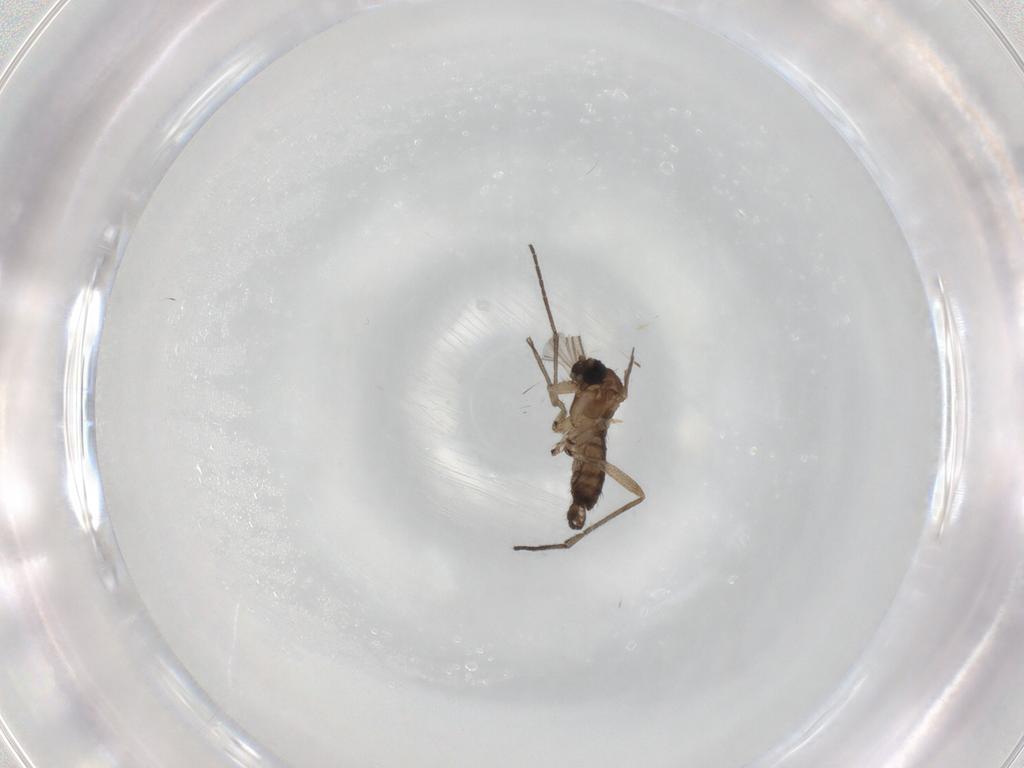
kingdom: Animalia
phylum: Arthropoda
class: Insecta
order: Diptera
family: Sciaridae
